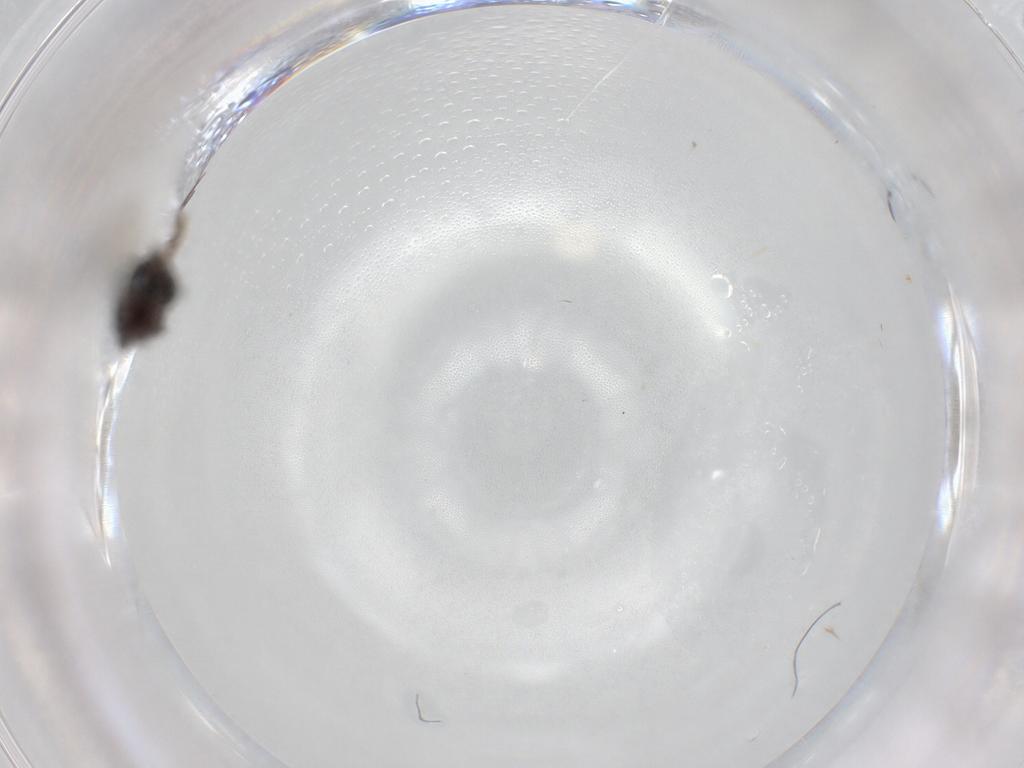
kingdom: Animalia
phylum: Arthropoda
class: Insecta
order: Diptera
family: Phoridae
